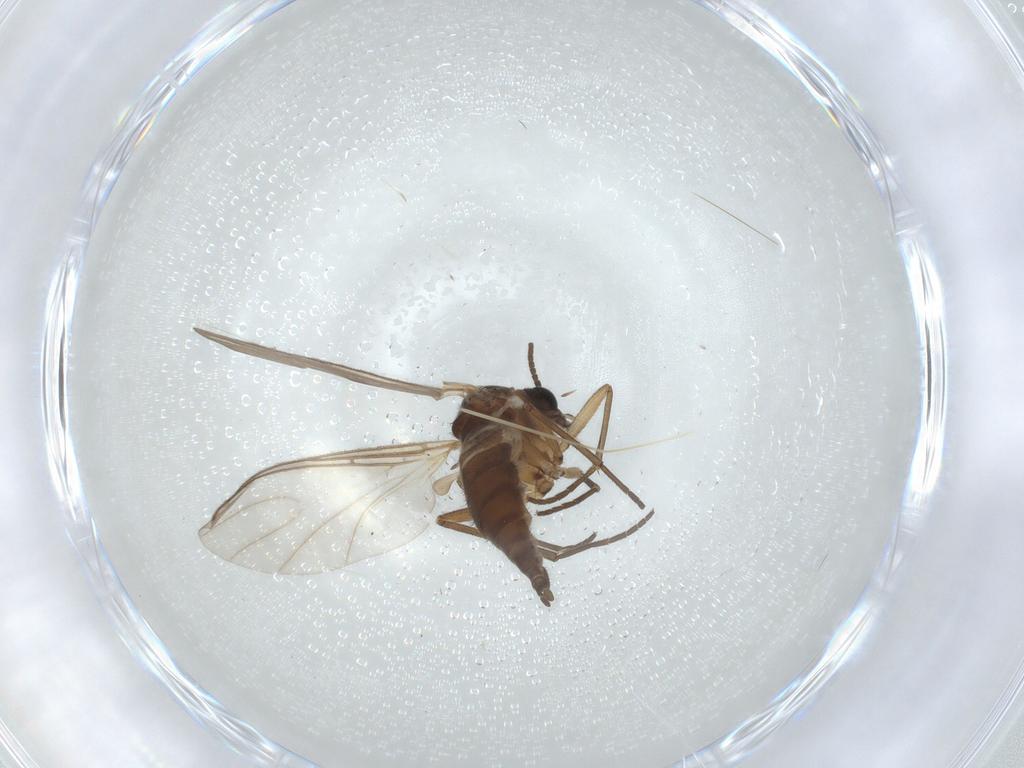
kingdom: Animalia
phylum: Arthropoda
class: Insecta
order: Diptera
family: Sciaridae
